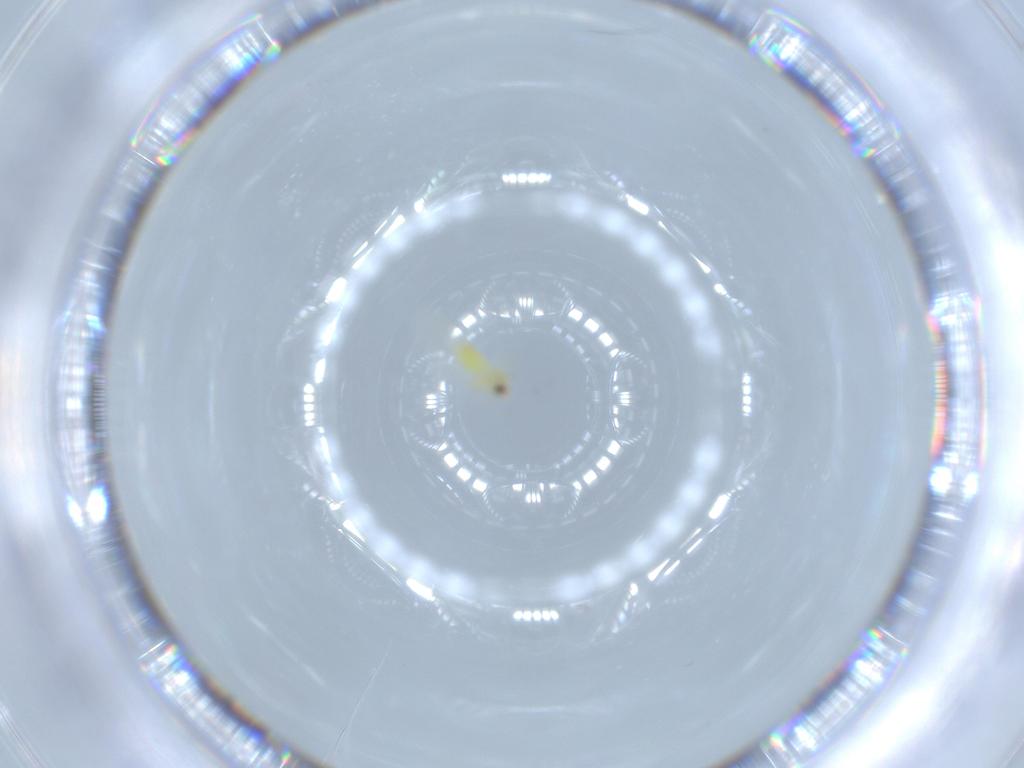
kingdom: Animalia
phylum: Arthropoda
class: Insecta
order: Hemiptera
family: Aleyrodidae
